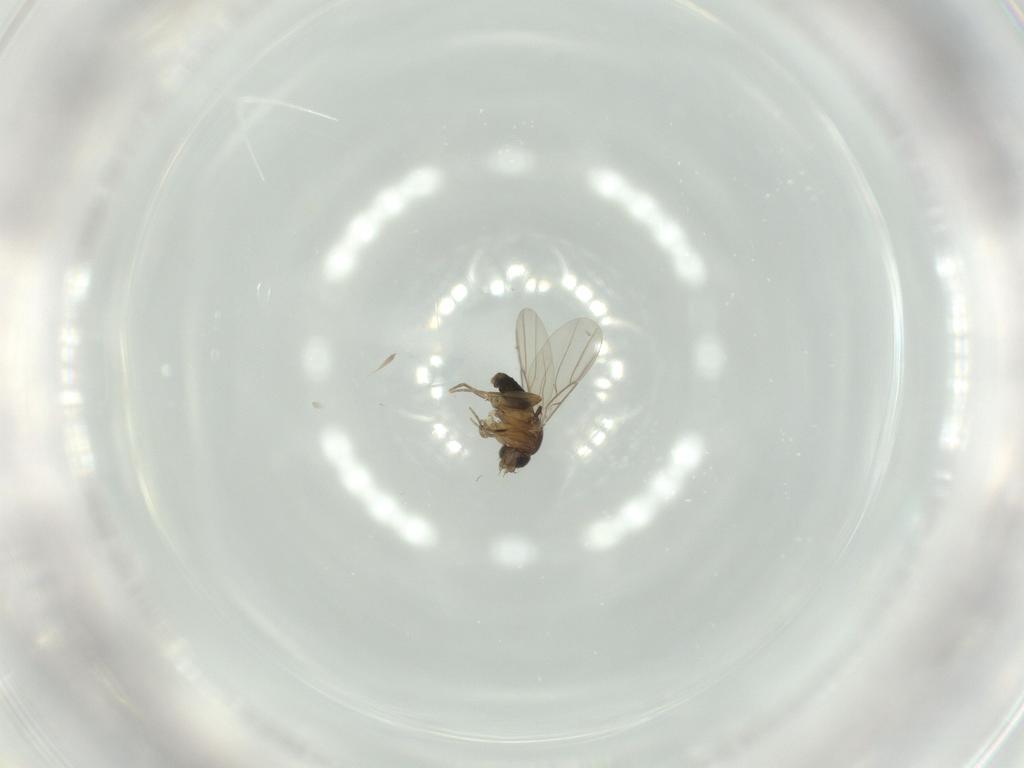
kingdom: Animalia
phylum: Arthropoda
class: Insecta
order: Diptera
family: Phoridae
